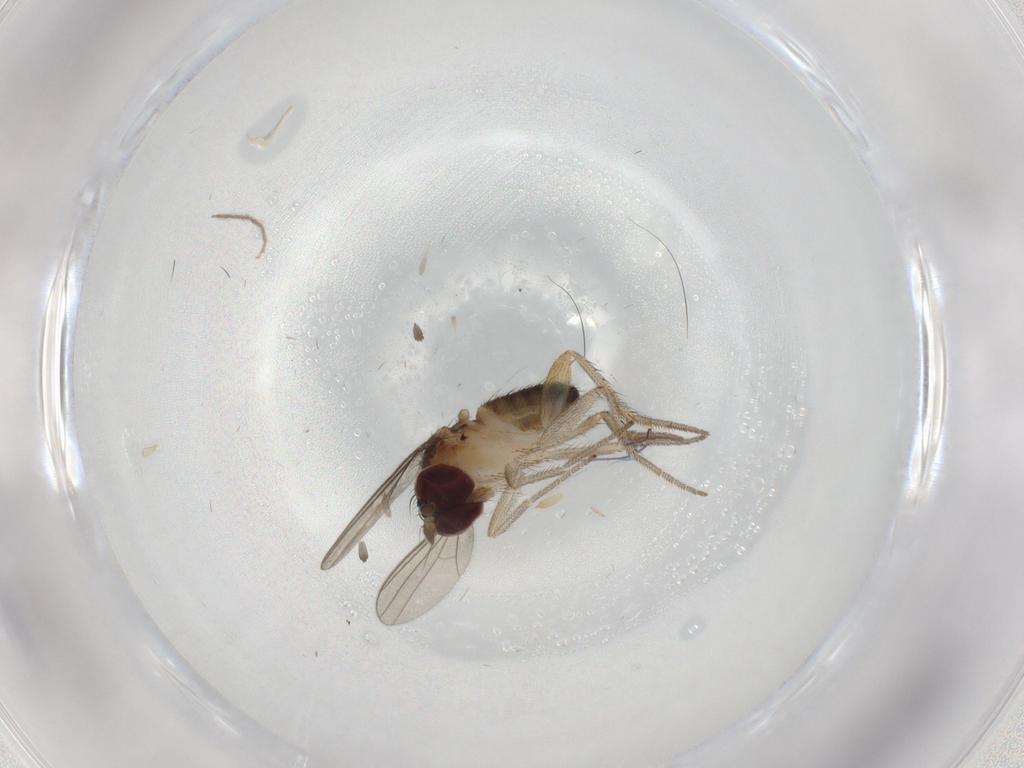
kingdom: Animalia
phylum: Arthropoda
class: Insecta
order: Diptera
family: Dolichopodidae
